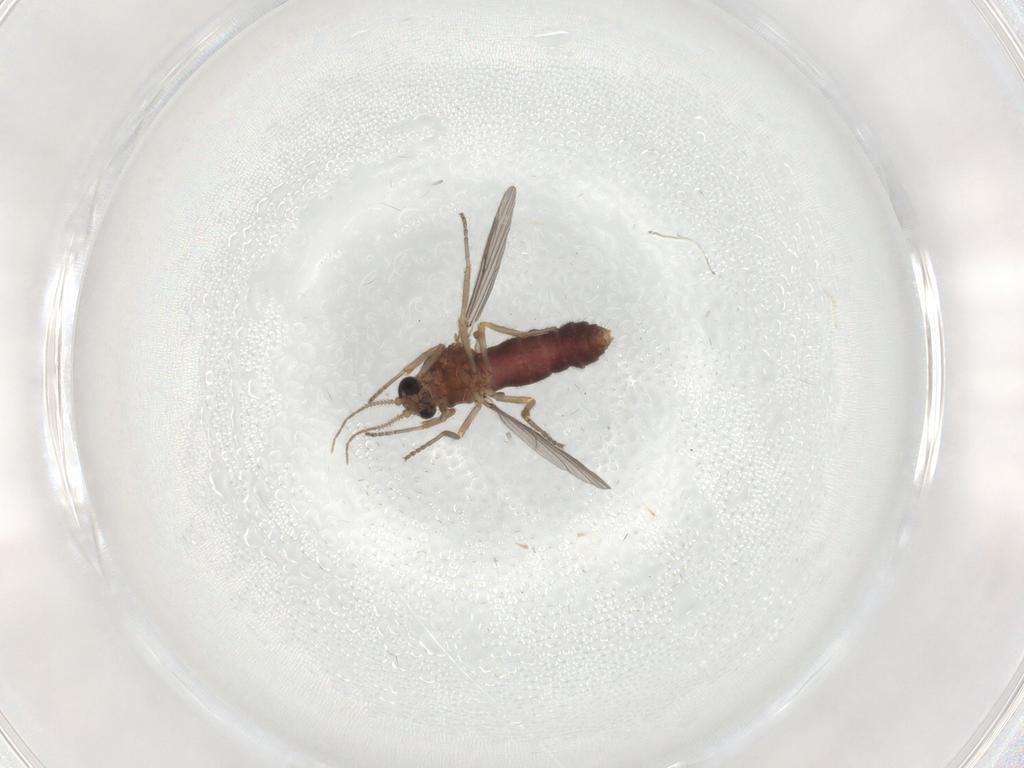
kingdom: Animalia
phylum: Arthropoda
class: Insecta
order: Diptera
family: Ceratopogonidae
